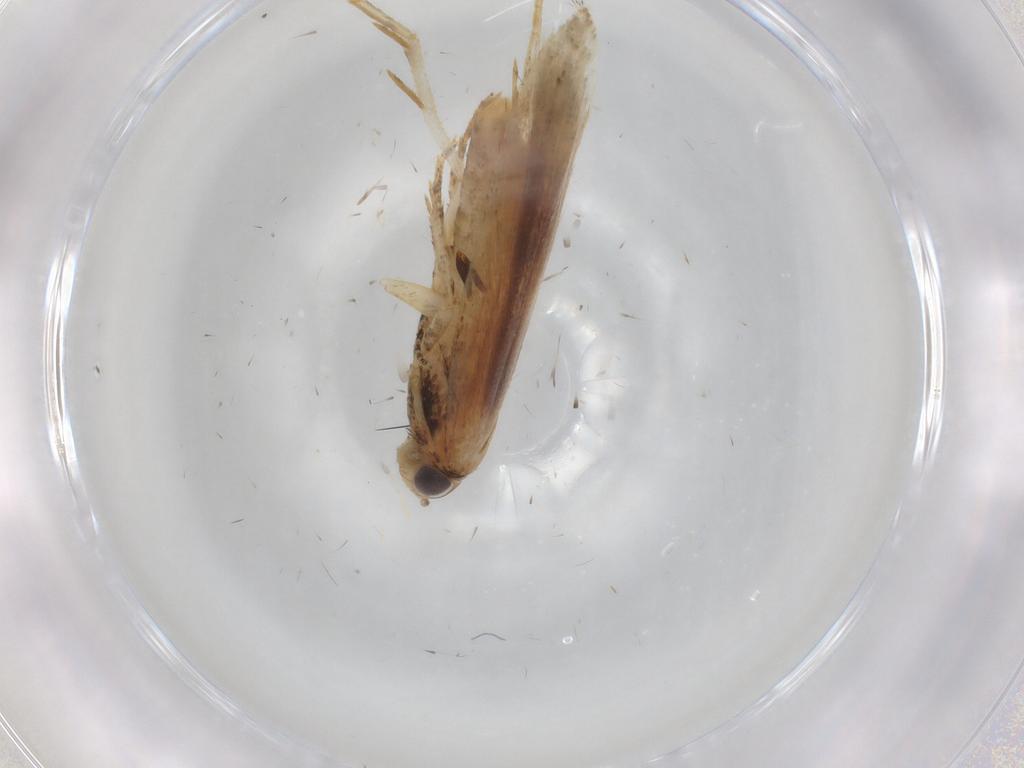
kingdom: Animalia
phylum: Arthropoda
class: Insecta
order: Lepidoptera
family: Gelechiidae
